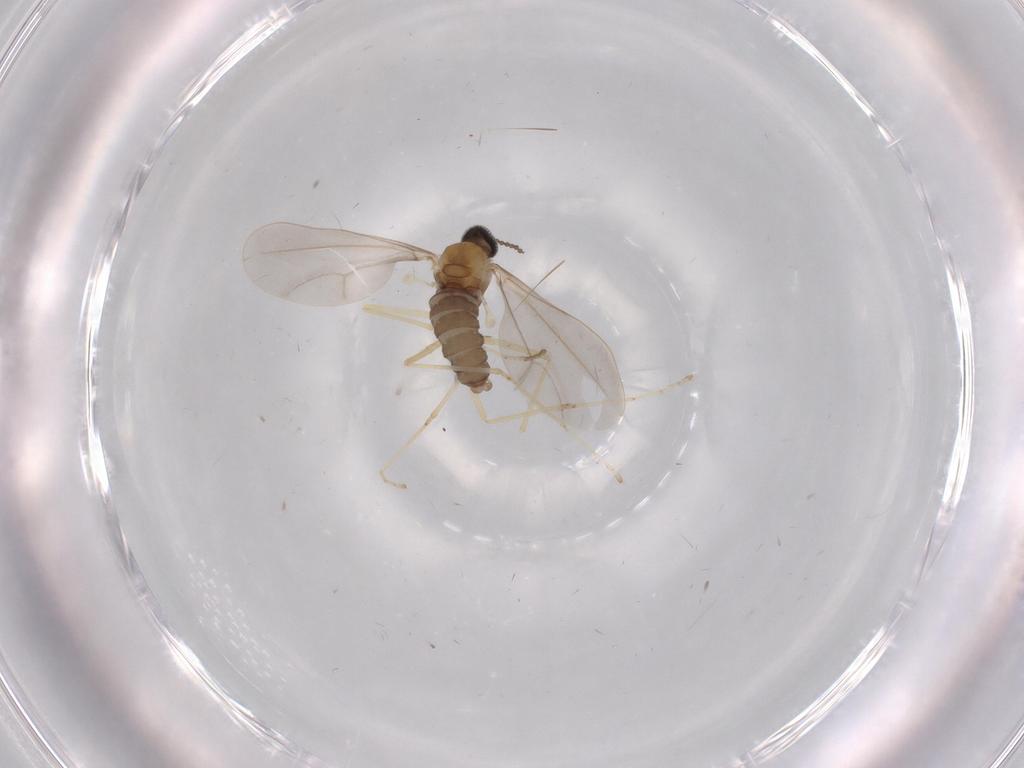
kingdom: Animalia
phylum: Arthropoda
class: Insecta
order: Diptera
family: Cecidomyiidae
